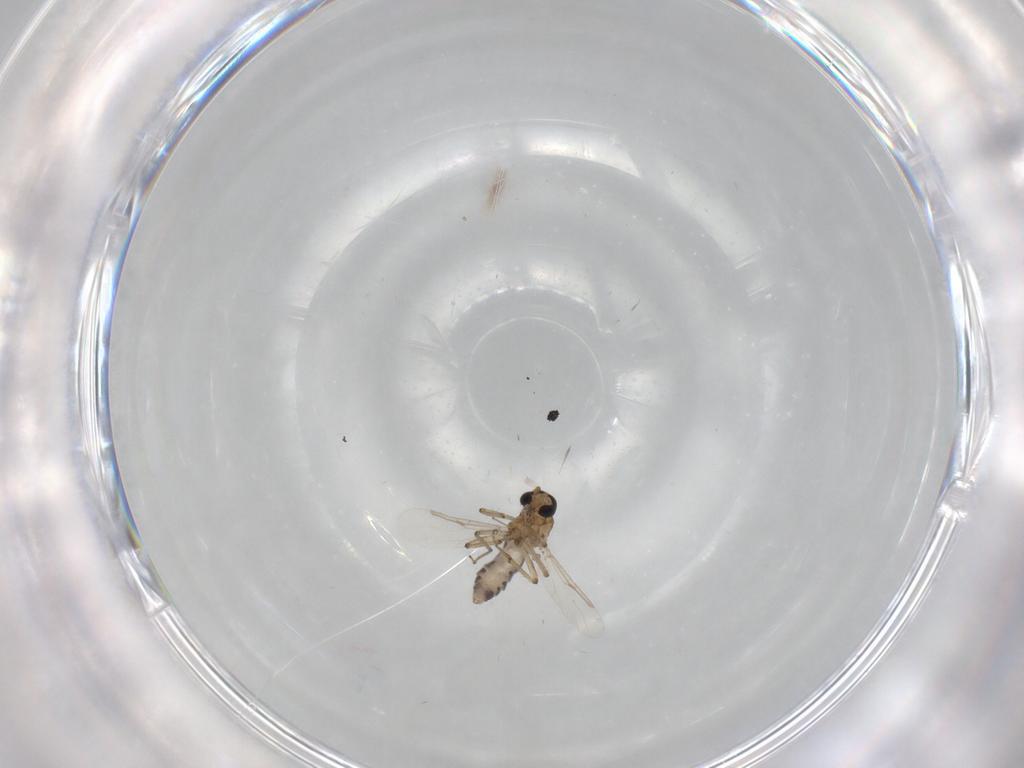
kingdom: Animalia
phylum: Arthropoda
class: Insecta
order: Diptera
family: Ceratopogonidae
